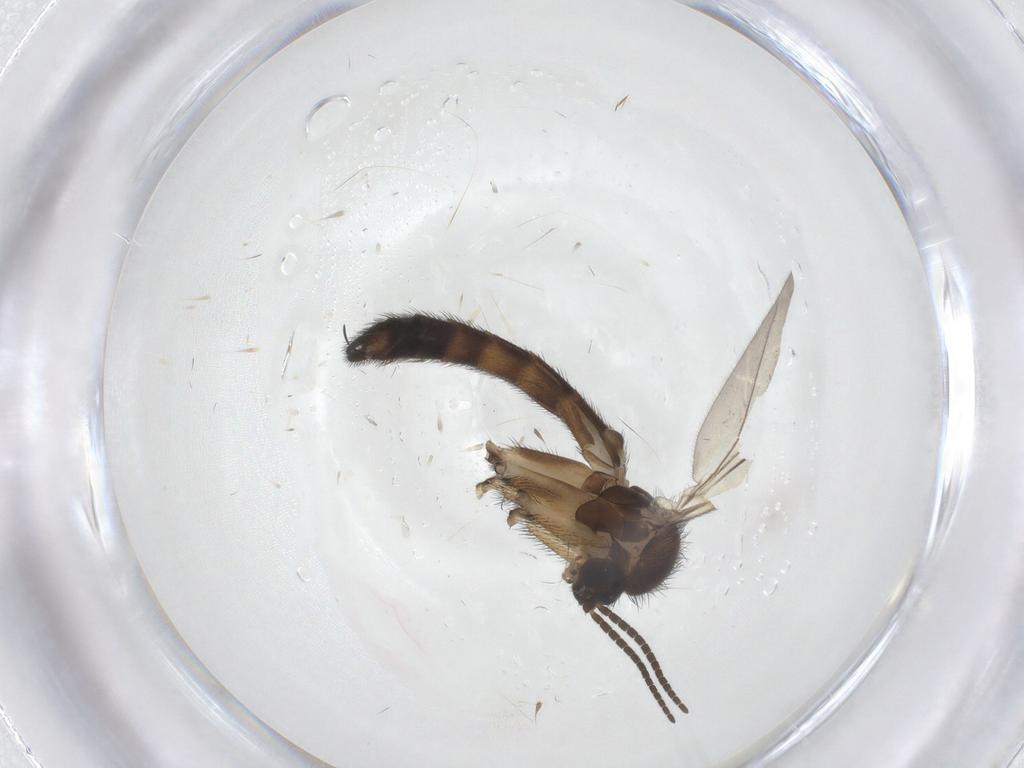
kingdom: Animalia
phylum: Arthropoda
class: Insecta
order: Diptera
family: Keroplatidae
